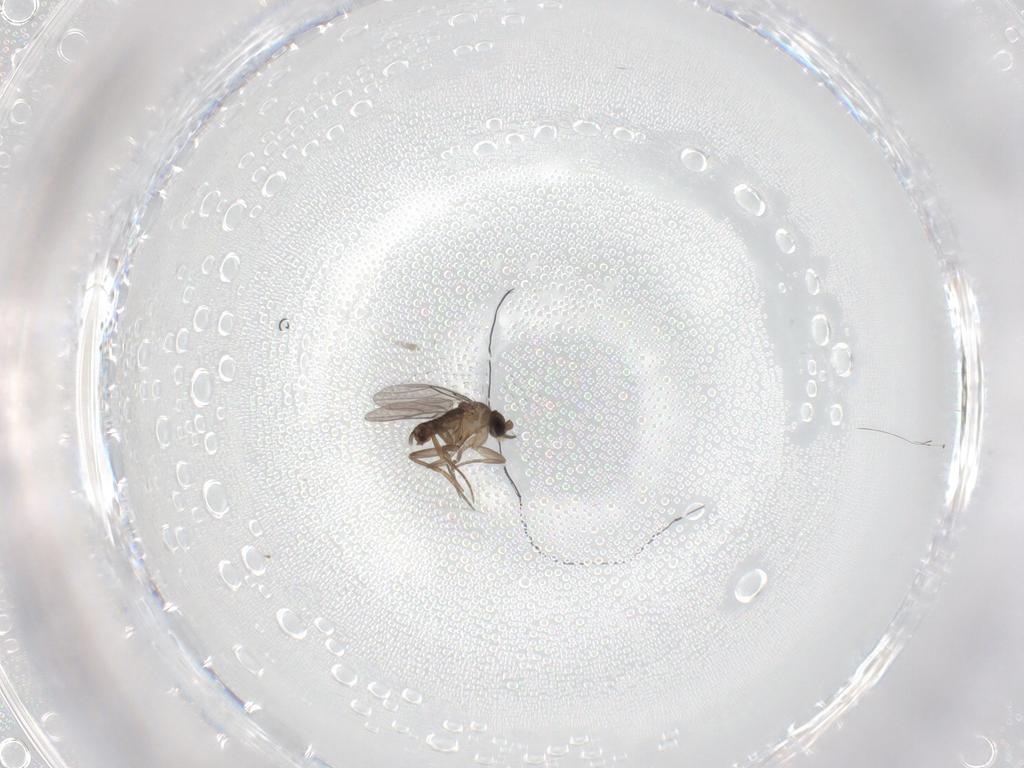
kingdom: Animalia
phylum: Arthropoda
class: Insecta
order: Diptera
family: Phoridae
